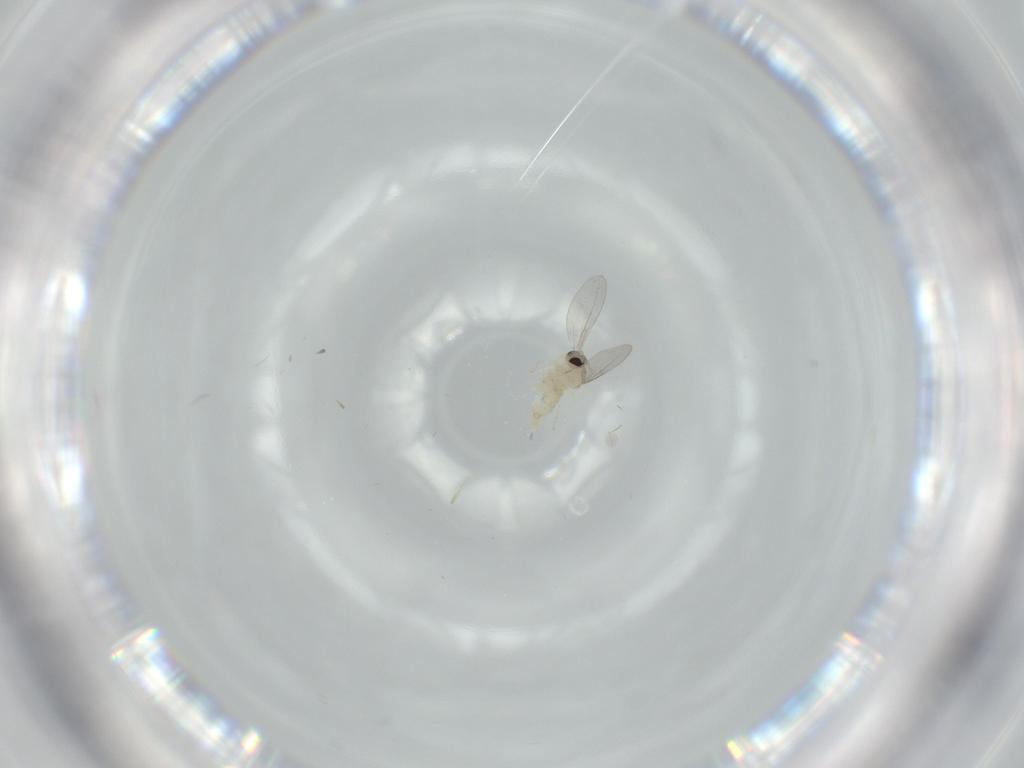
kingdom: Animalia
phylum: Arthropoda
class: Insecta
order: Diptera
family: Cecidomyiidae
